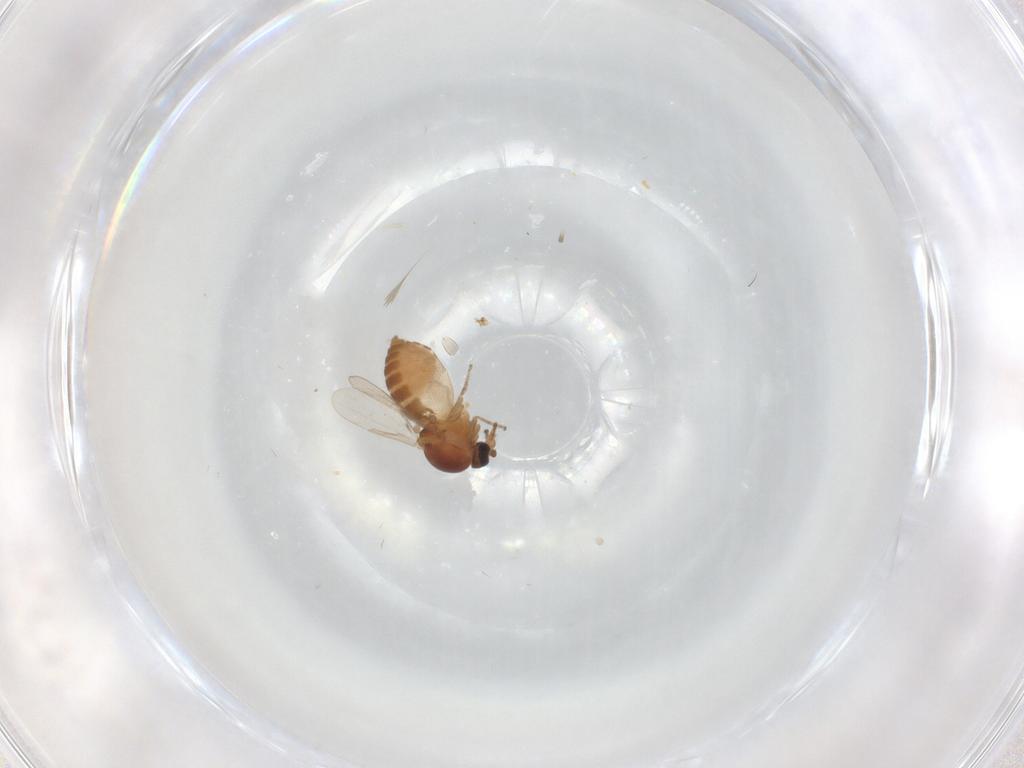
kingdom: Animalia
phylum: Arthropoda
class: Insecta
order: Diptera
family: Ceratopogonidae
